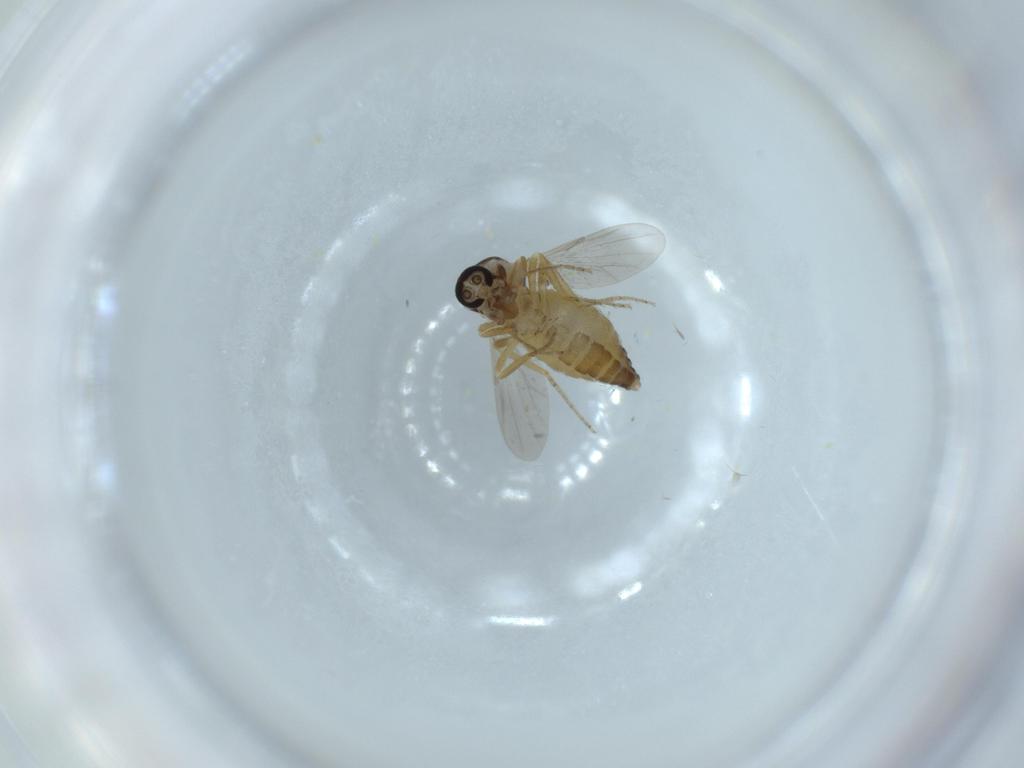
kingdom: Animalia
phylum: Arthropoda
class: Insecta
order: Diptera
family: Ceratopogonidae
